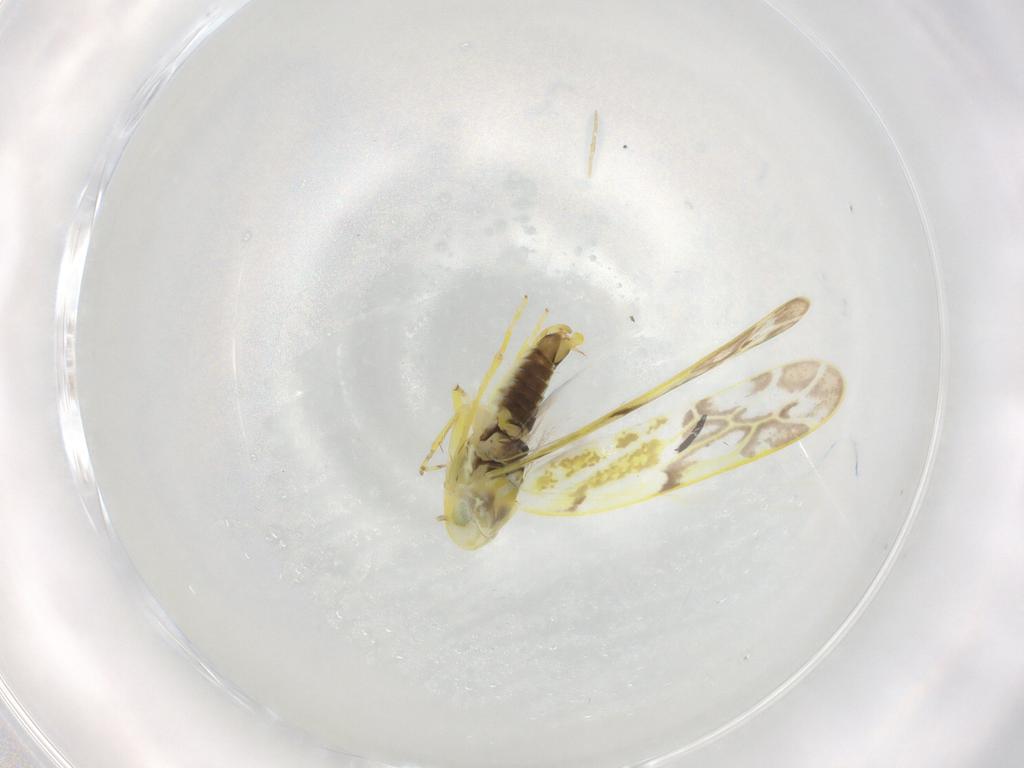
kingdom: Animalia
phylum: Arthropoda
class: Insecta
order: Hemiptera
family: Cicadellidae
